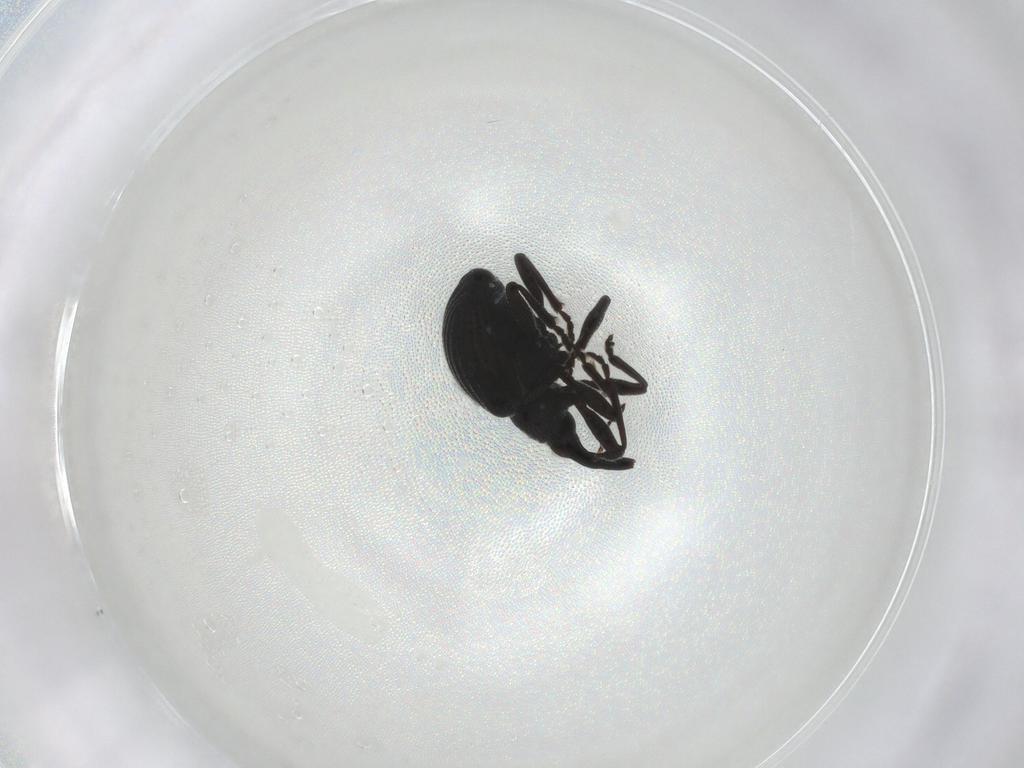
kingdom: Animalia
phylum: Arthropoda
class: Insecta
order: Coleoptera
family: Brentidae
